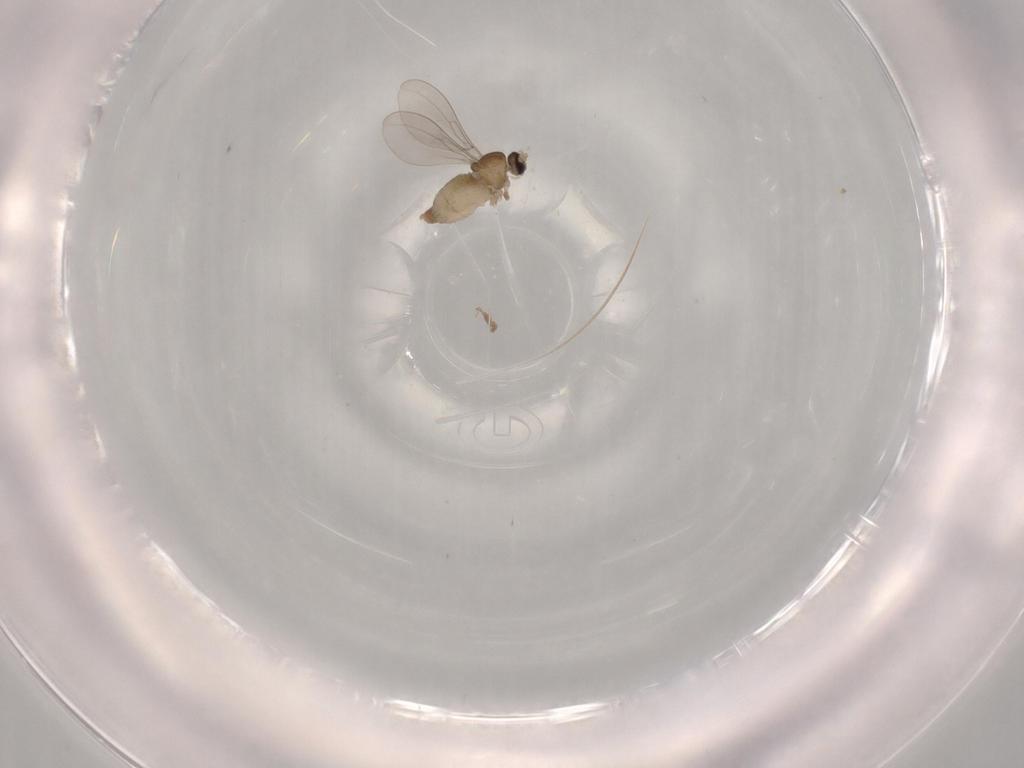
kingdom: Animalia
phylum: Arthropoda
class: Insecta
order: Diptera
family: Cecidomyiidae
